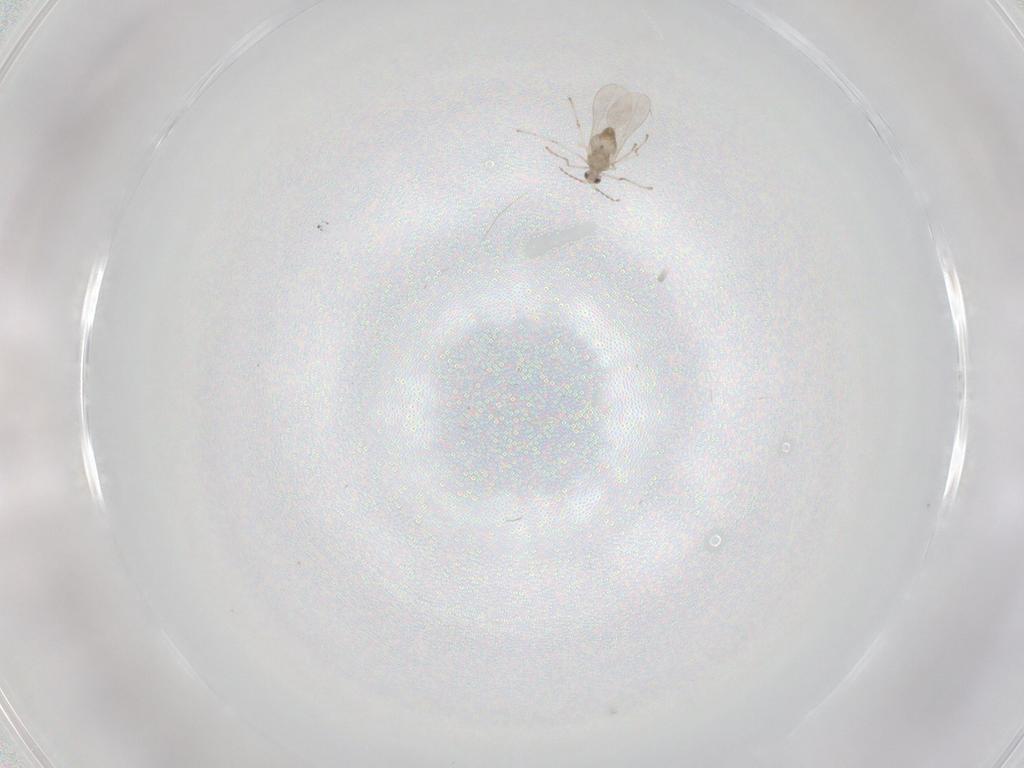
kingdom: Animalia
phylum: Arthropoda
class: Insecta
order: Diptera
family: Cecidomyiidae
